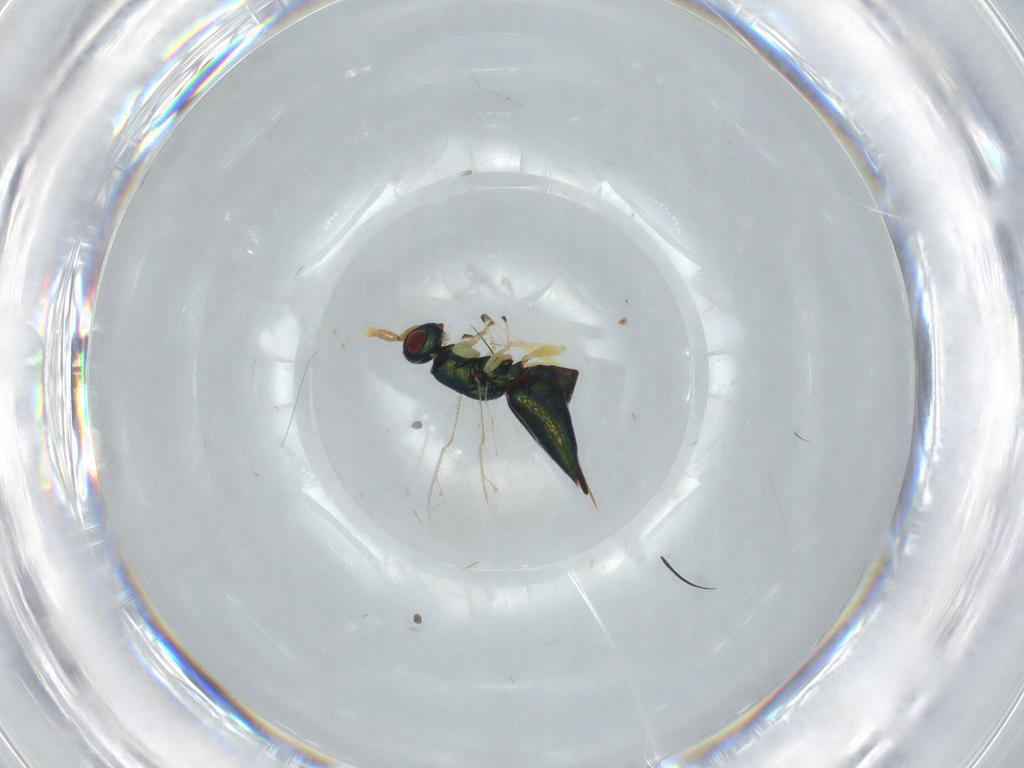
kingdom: Animalia
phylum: Arthropoda
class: Insecta
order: Hymenoptera
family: Pteromalidae
